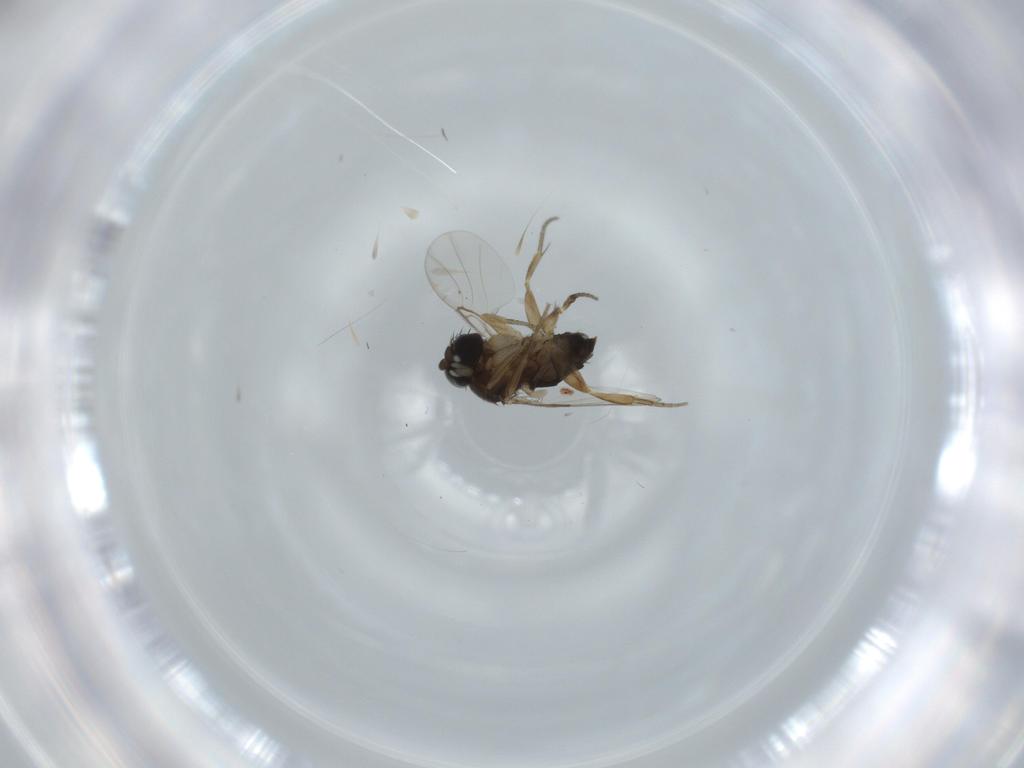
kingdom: Animalia
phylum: Arthropoda
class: Insecta
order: Diptera
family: Phoridae
